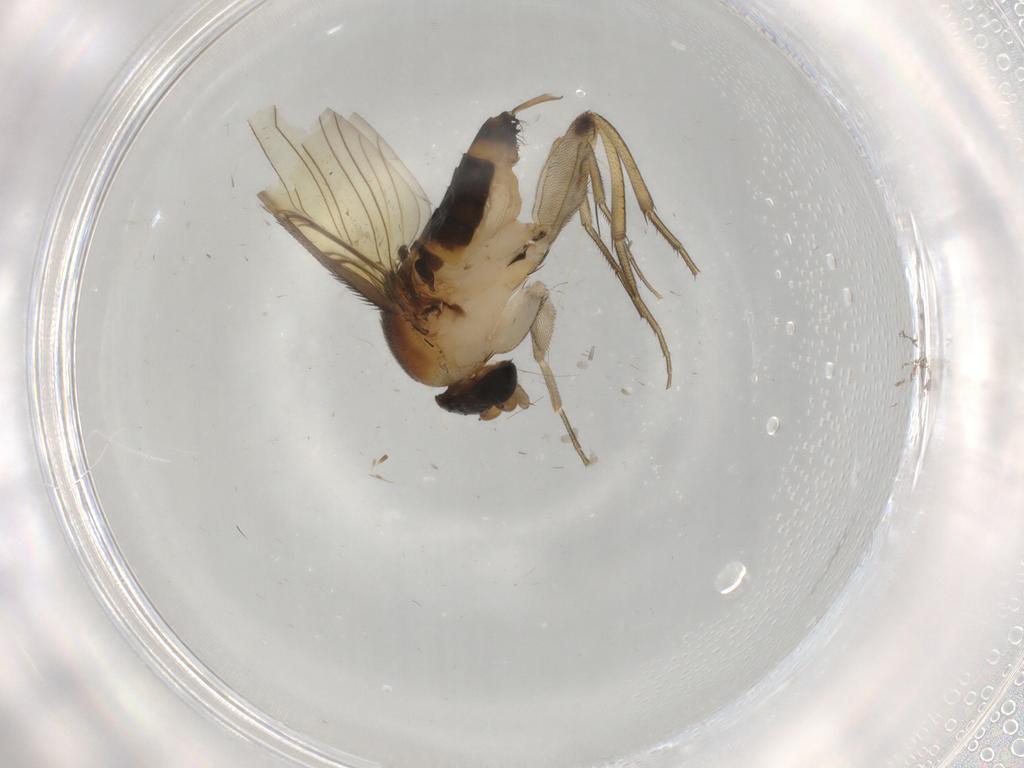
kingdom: Animalia
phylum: Arthropoda
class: Insecta
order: Diptera
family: Phoridae
